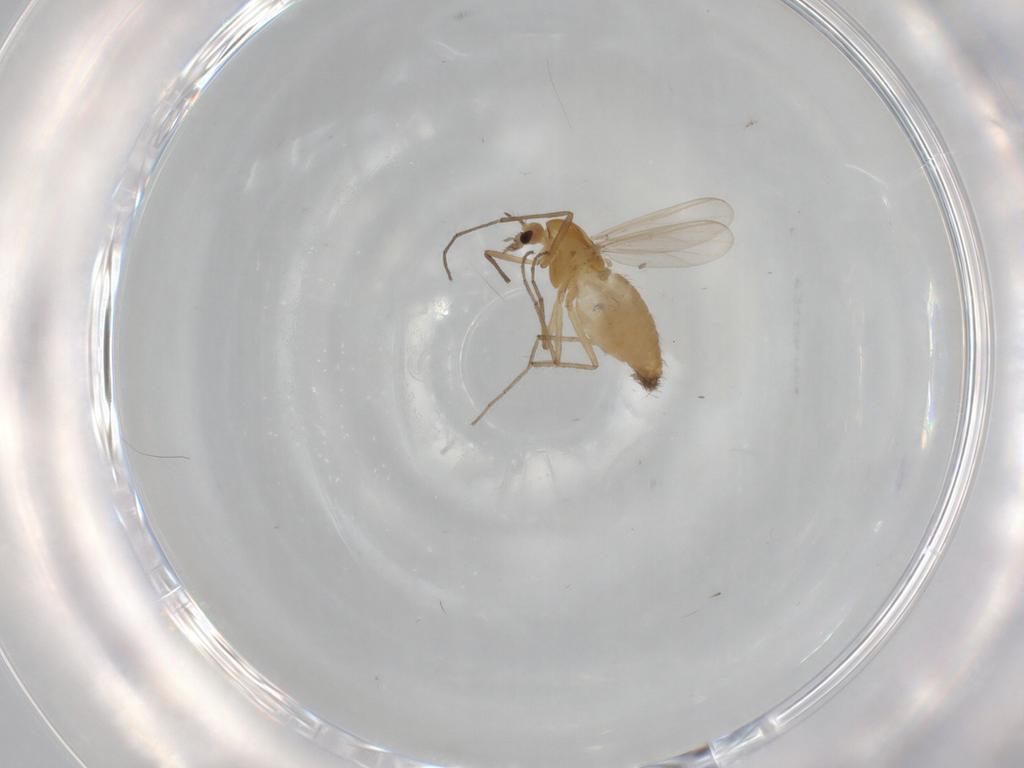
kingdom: Animalia
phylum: Arthropoda
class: Insecta
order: Diptera
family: Chironomidae
